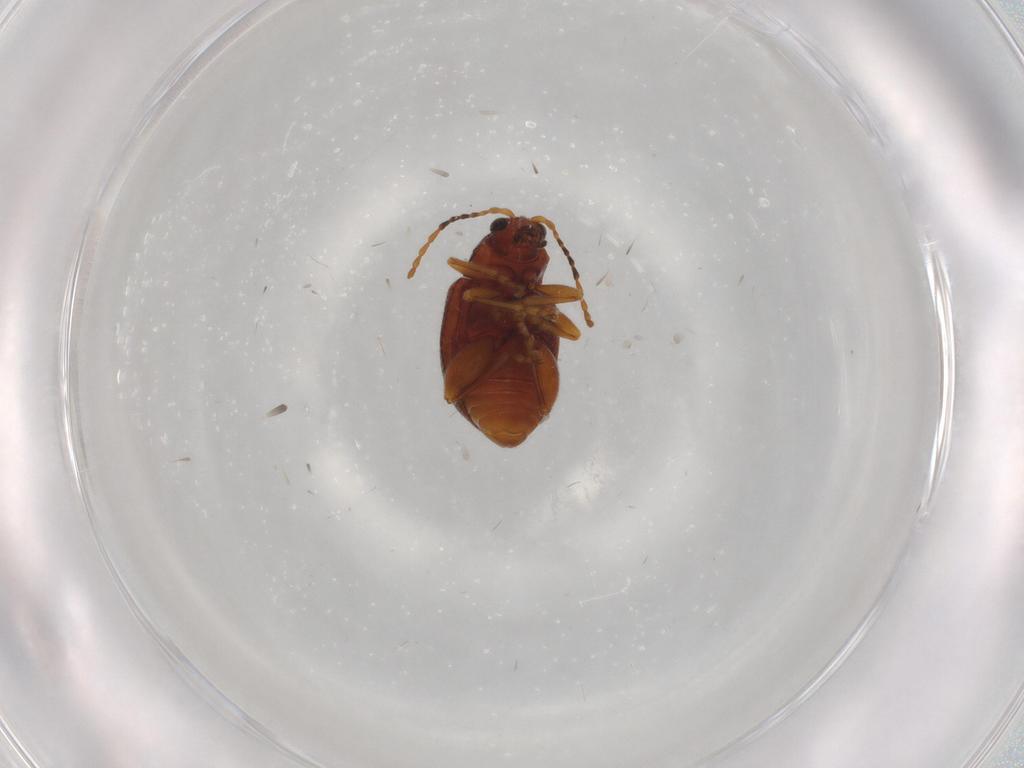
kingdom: Animalia
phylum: Arthropoda
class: Insecta
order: Coleoptera
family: Chrysomelidae
